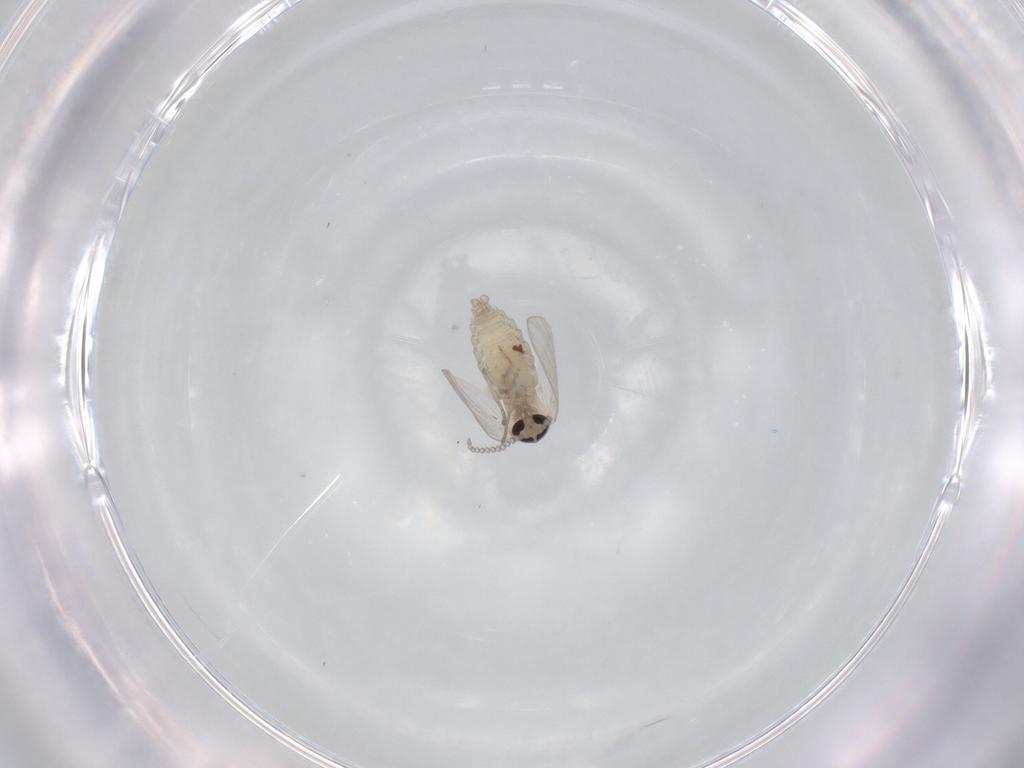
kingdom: Animalia
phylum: Arthropoda
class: Insecta
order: Diptera
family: Psychodidae
